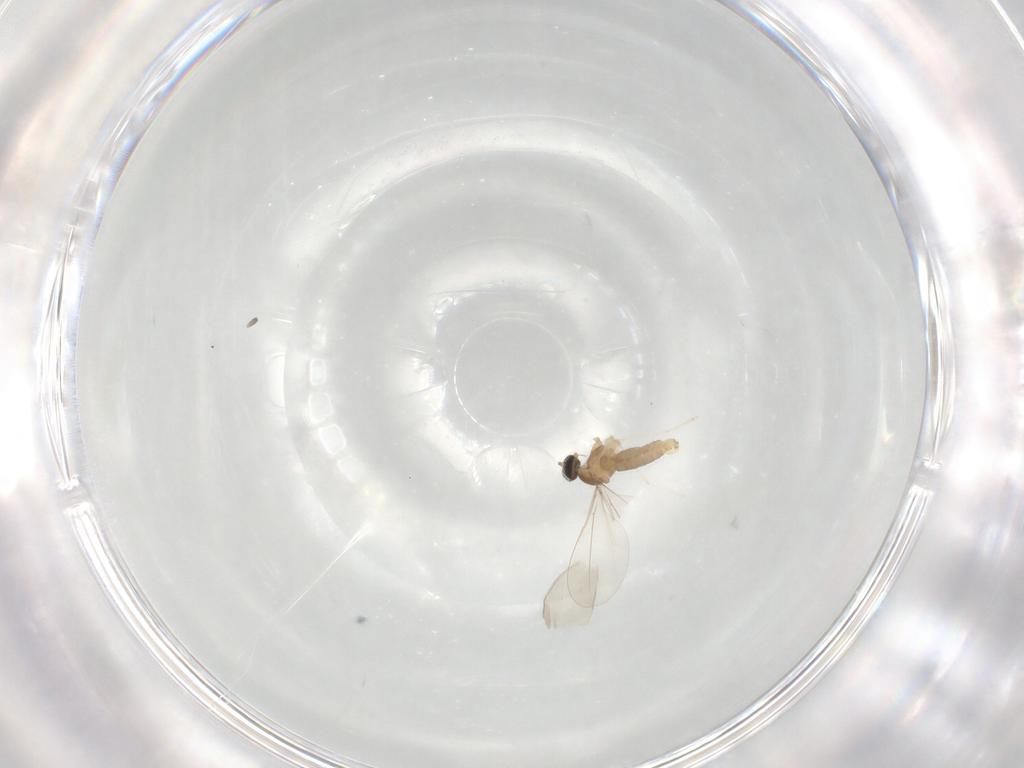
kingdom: Animalia
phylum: Arthropoda
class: Insecta
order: Diptera
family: Cecidomyiidae
